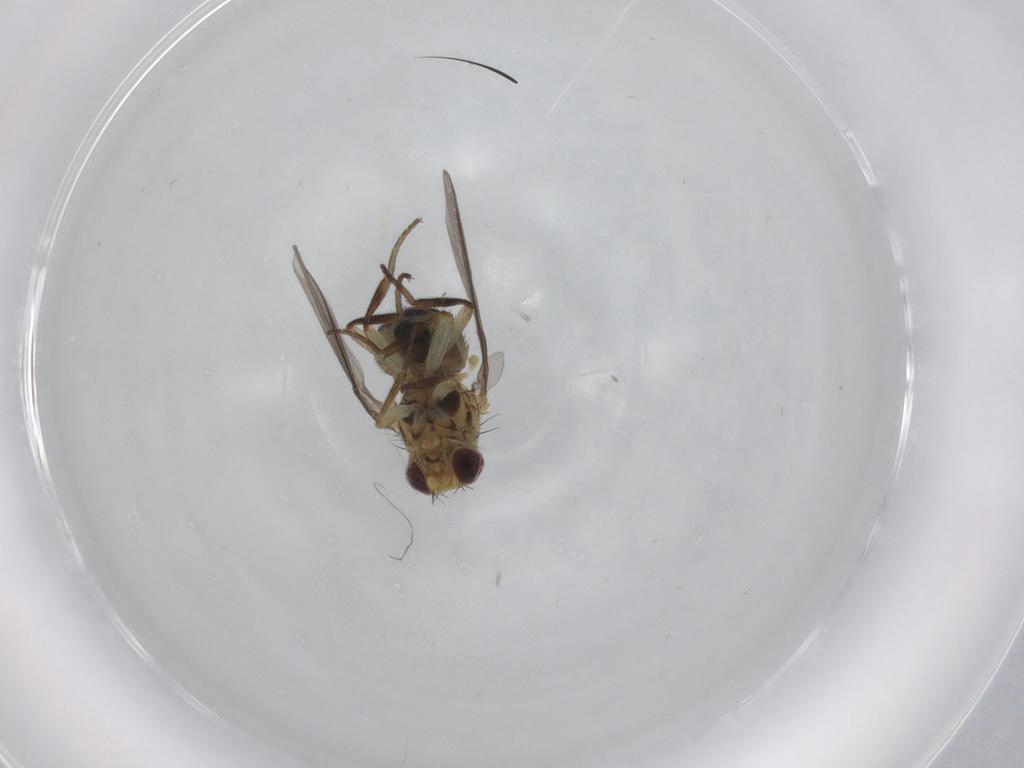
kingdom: Animalia
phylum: Arthropoda
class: Insecta
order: Diptera
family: Agromyzidae
